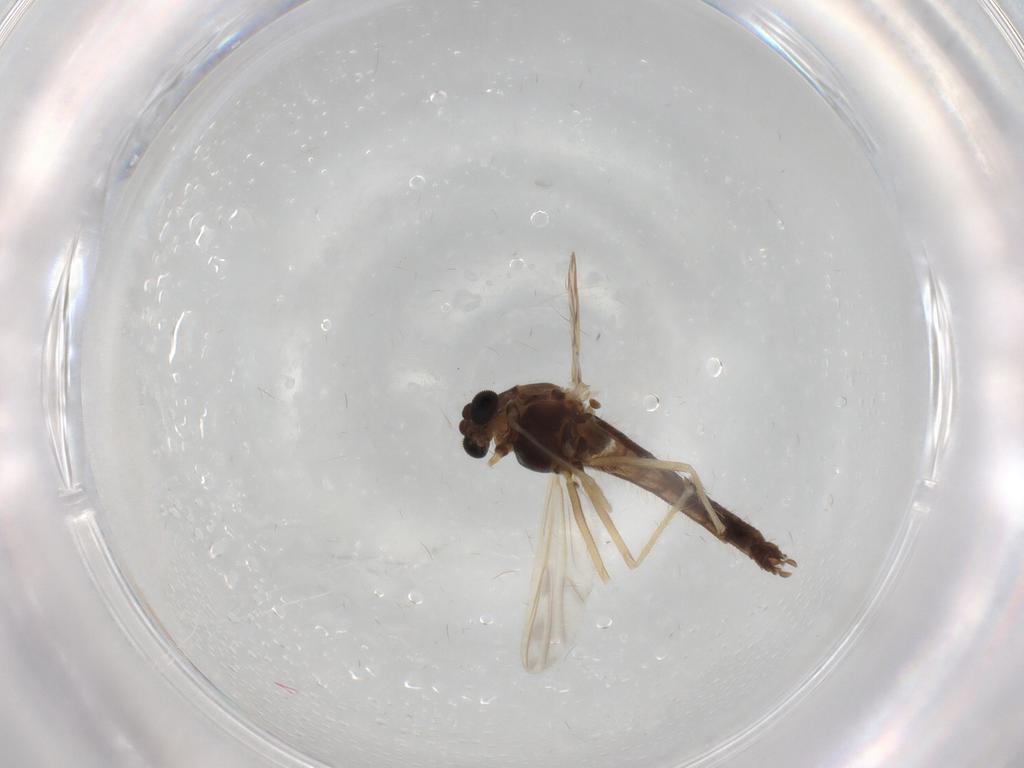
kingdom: Animalia
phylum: Arthropoda
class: Insecta
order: Diptera
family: Chironomidae
